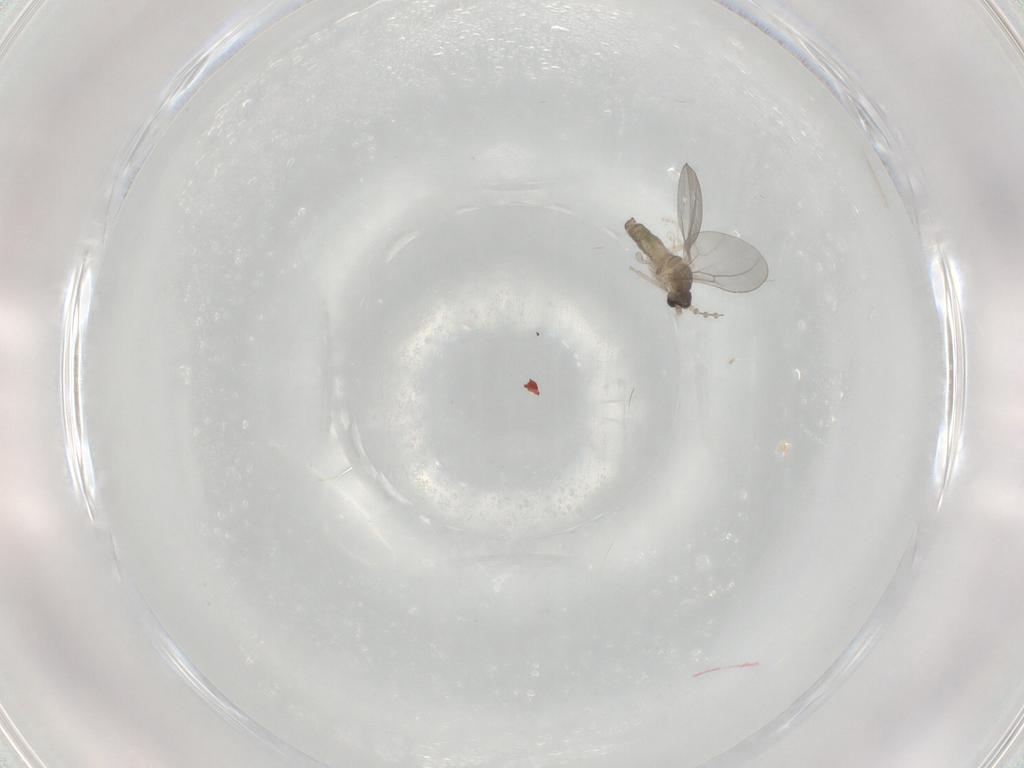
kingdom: Animalia
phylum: Arthropoda
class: Insecta
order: Diptera
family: Cecidomyiidae
